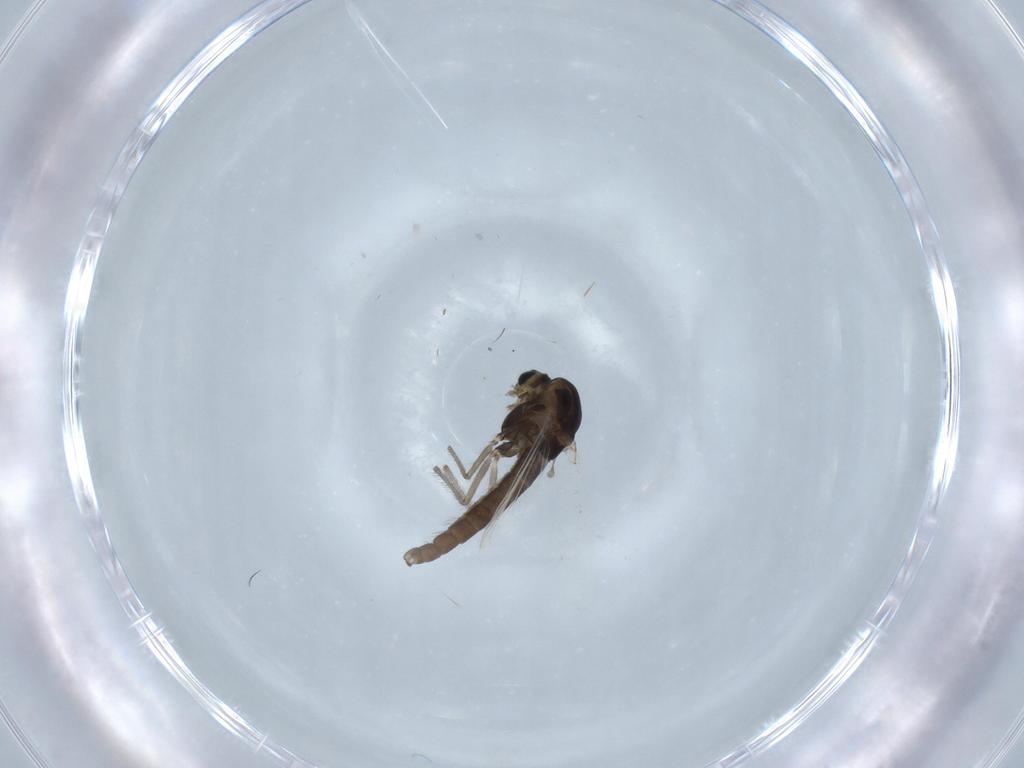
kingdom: Animalia
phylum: Arthropoda
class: Insecta
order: Diptera
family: Chironomidae
